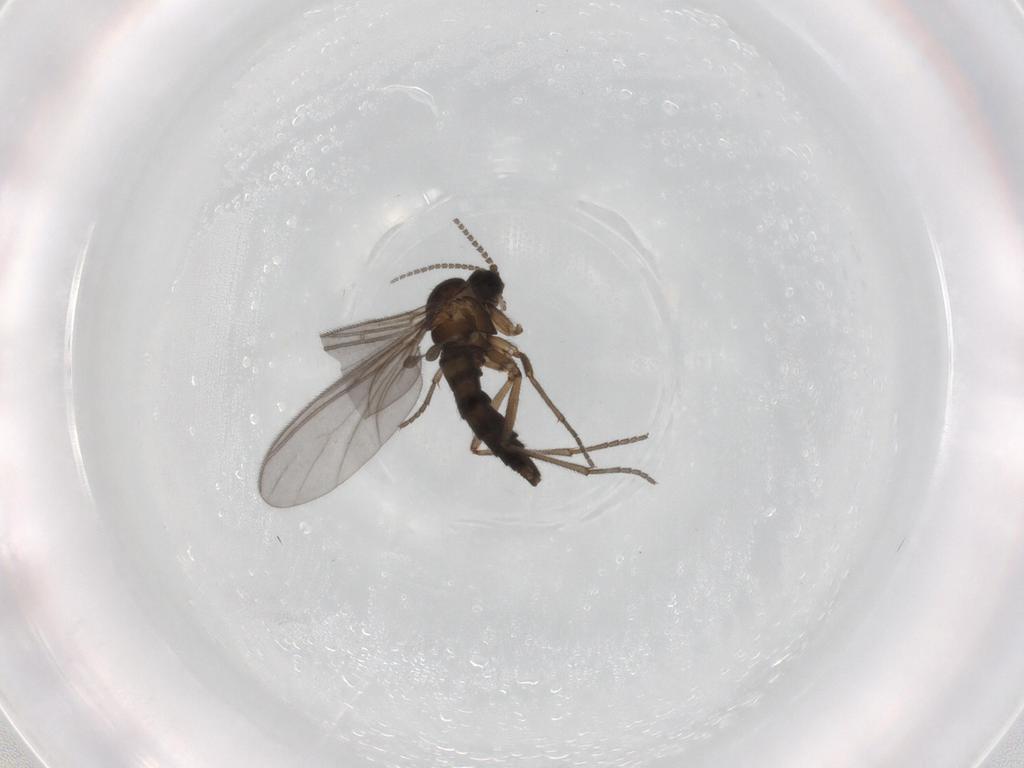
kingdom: Animalia
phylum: Arthropoda
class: Insecta
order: Diptera
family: Sciaridae
